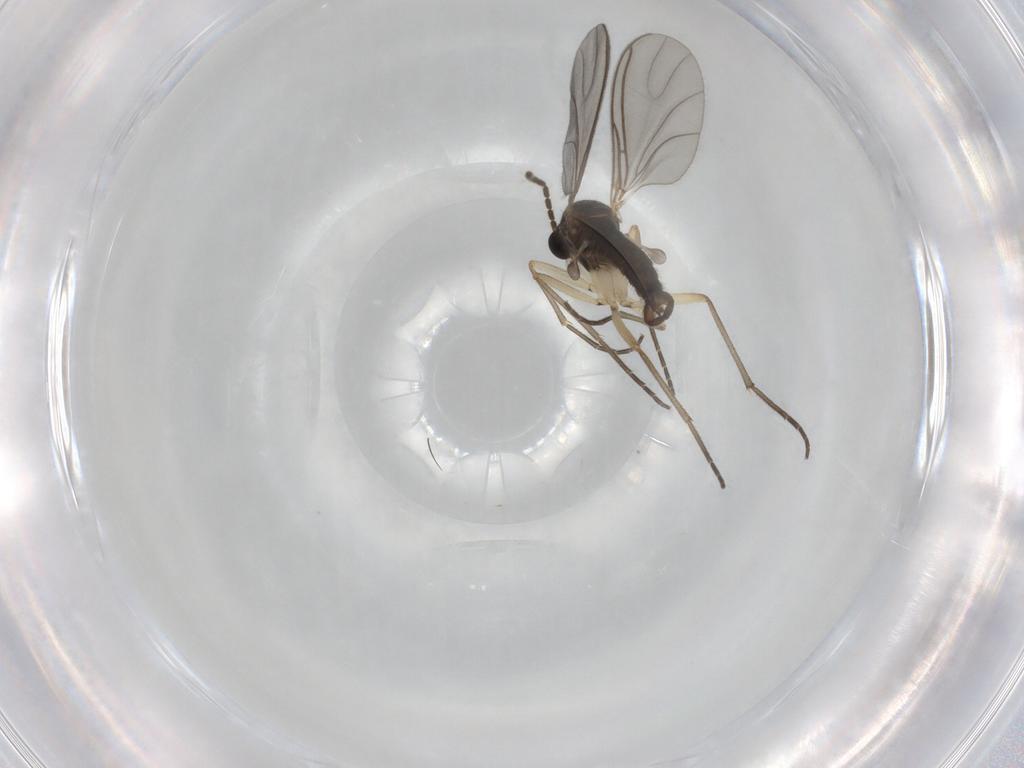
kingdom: Animalia
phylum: Arthropoda
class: Insecta
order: Diptera
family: Sciaridae
